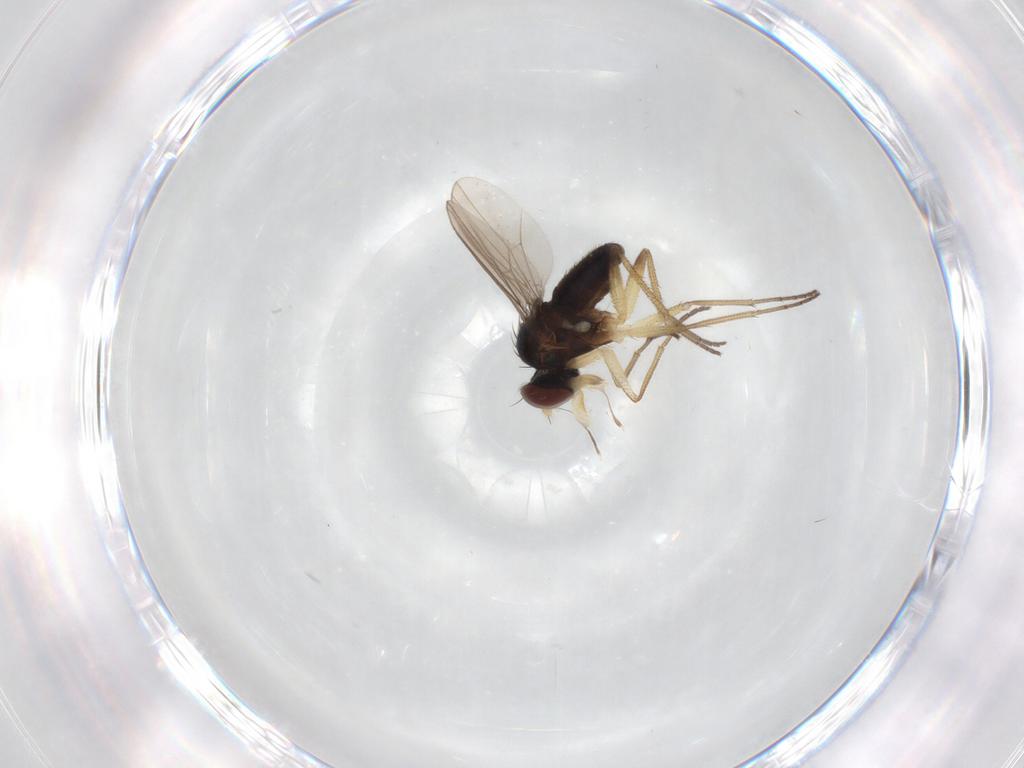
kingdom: Animalia
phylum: Arthropoda
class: Insecta
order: Diptera
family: Dolichopodidae
